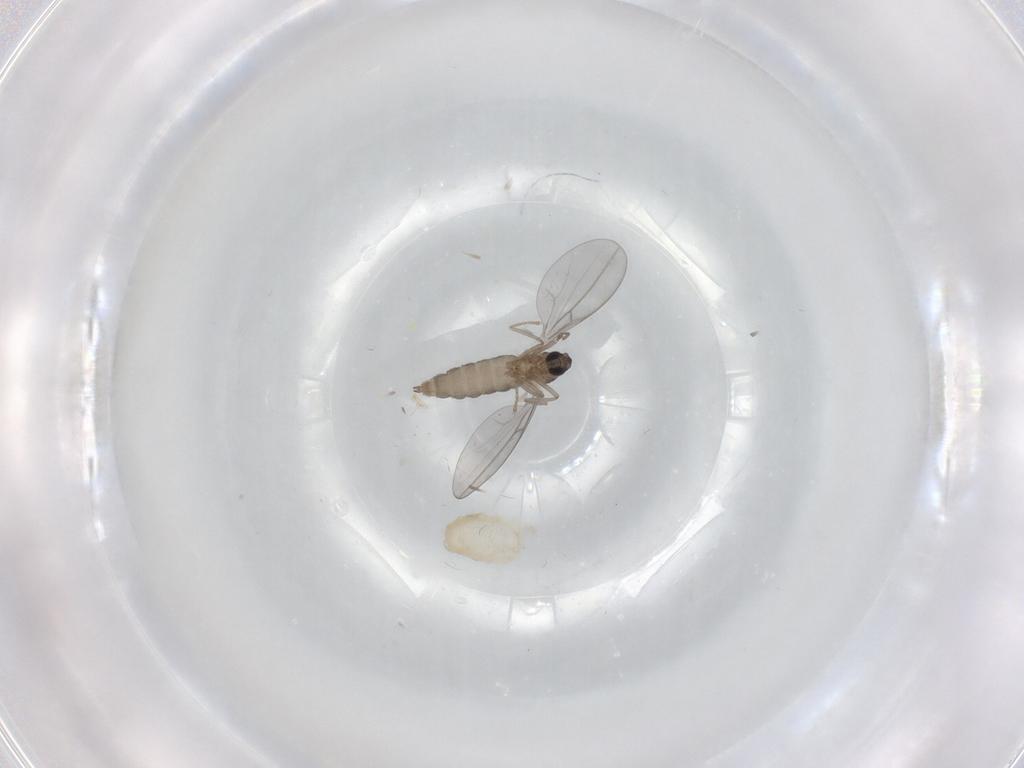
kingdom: Animalia
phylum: Arthropoda
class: Insecta
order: Diptera
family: Cecidomyiidae
